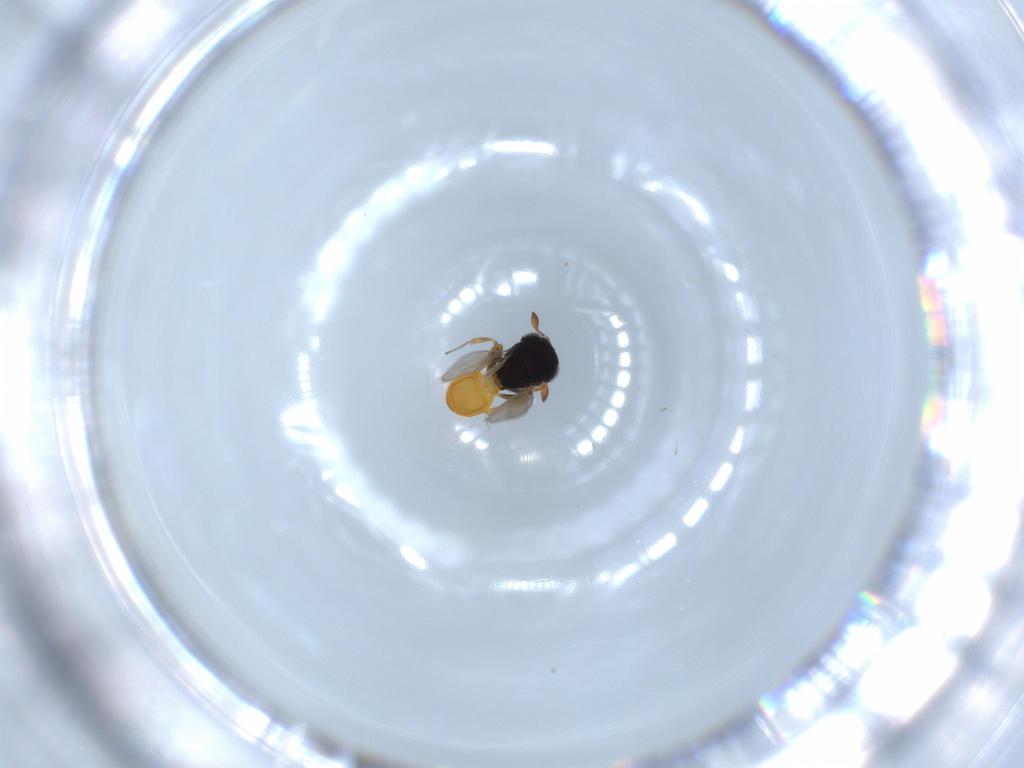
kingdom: Animalia
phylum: Arthropoda
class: Insecta
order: Hymenoptera
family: Scelionidae
